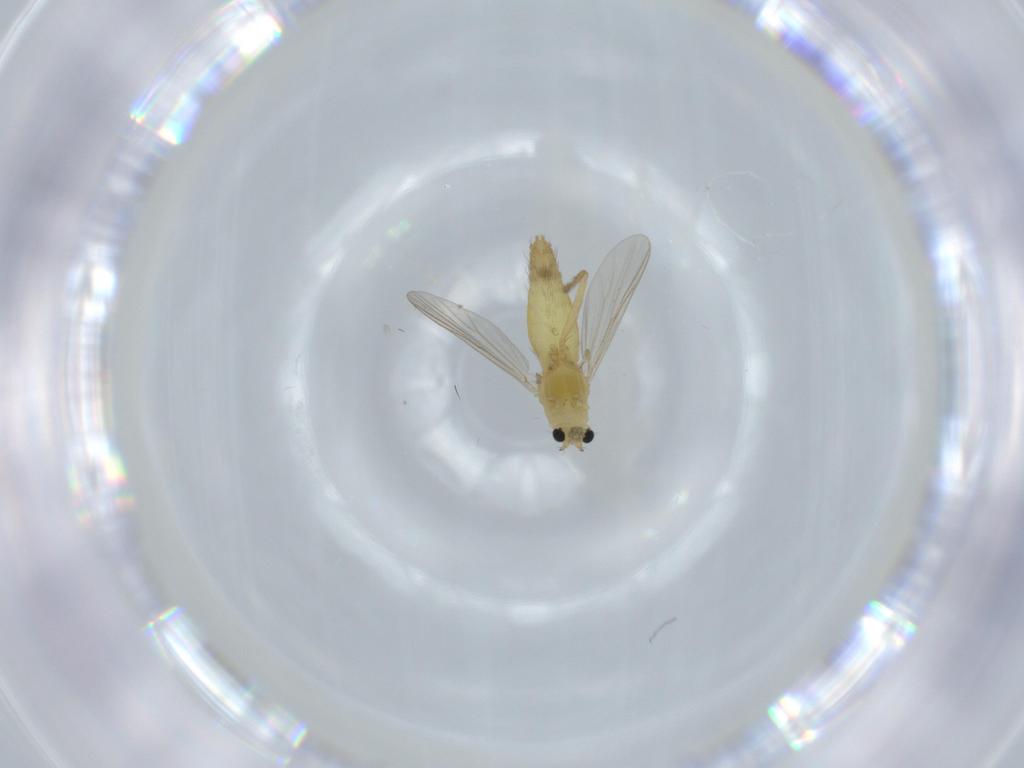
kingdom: Animalia
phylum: Arthropoda
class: Insecta
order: Diptera
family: Chironomidae
